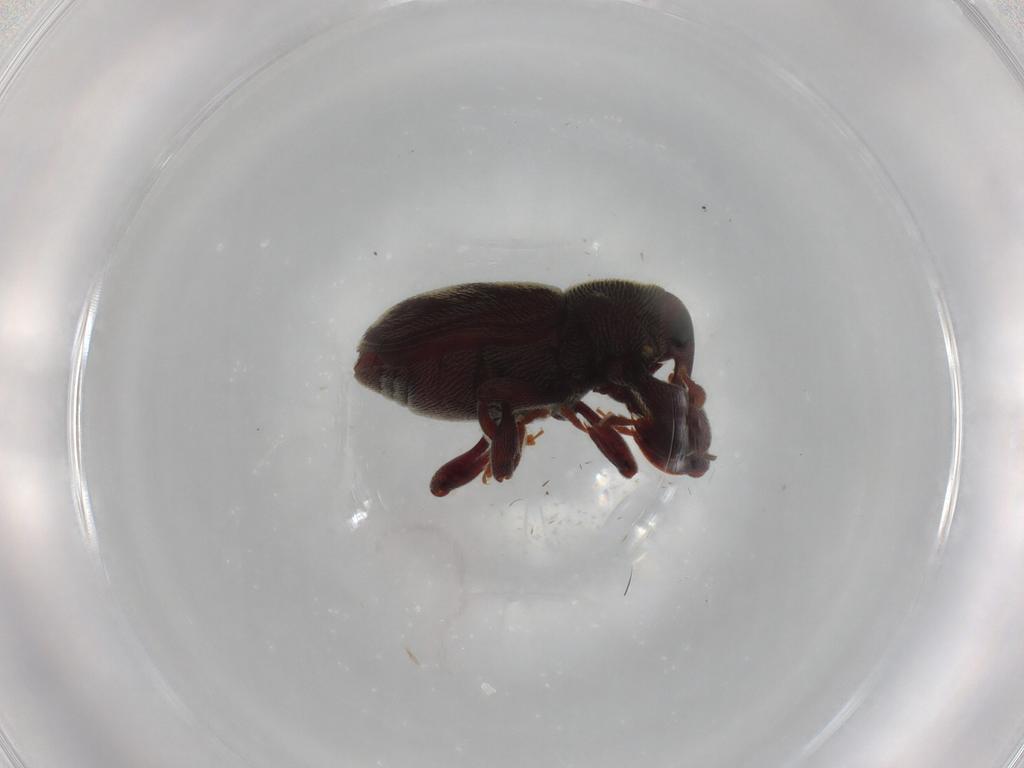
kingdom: Animalia
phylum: Arthropoda
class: Insecta
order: Coleoptera
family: Curculionidae
